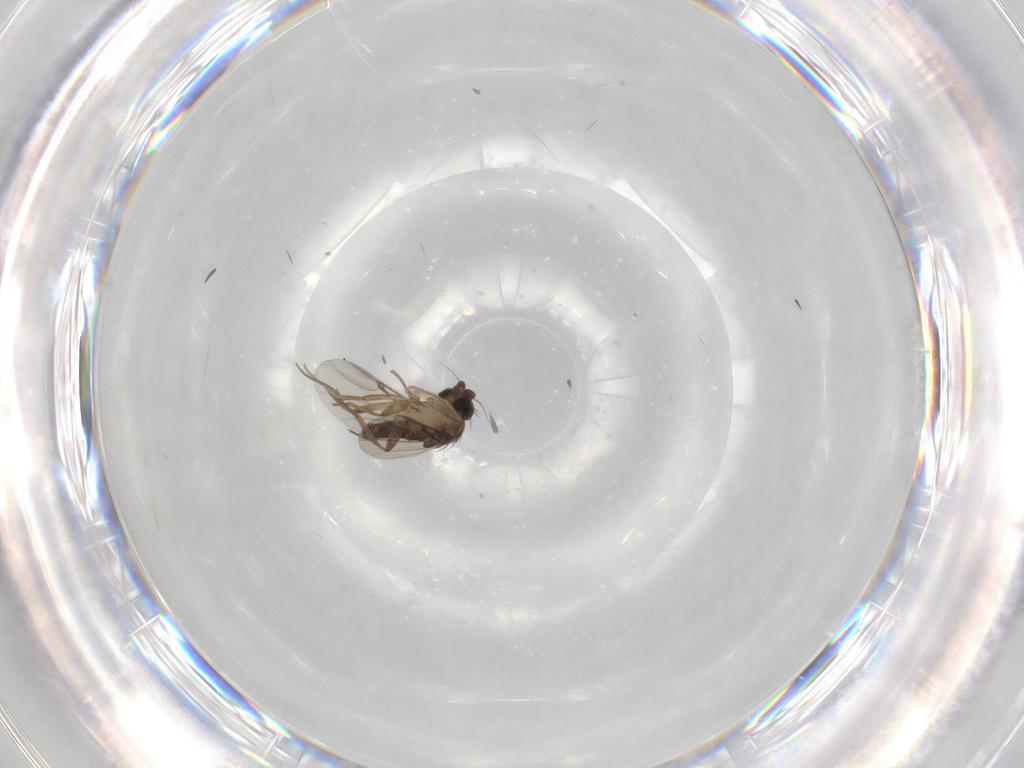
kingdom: Animalia
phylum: Arthropoda
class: Insecta
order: Diptera
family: Phoridae
